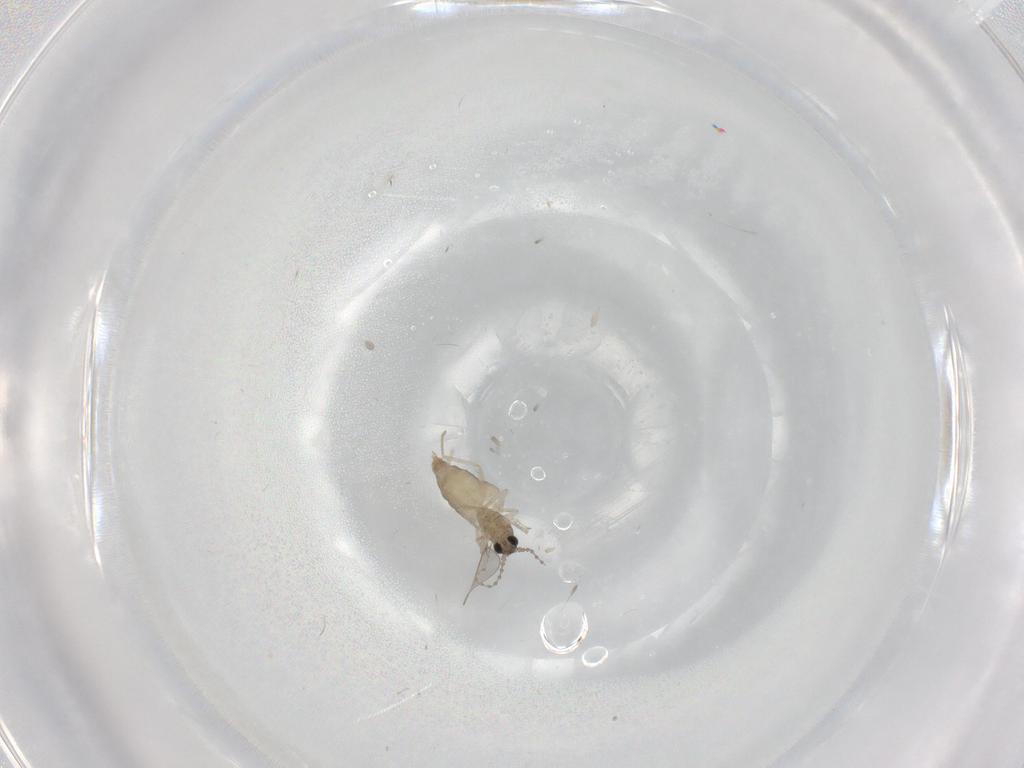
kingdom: Animalia
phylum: Arthropoda
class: Insecta
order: Diptera
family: Cecidomyiidae
